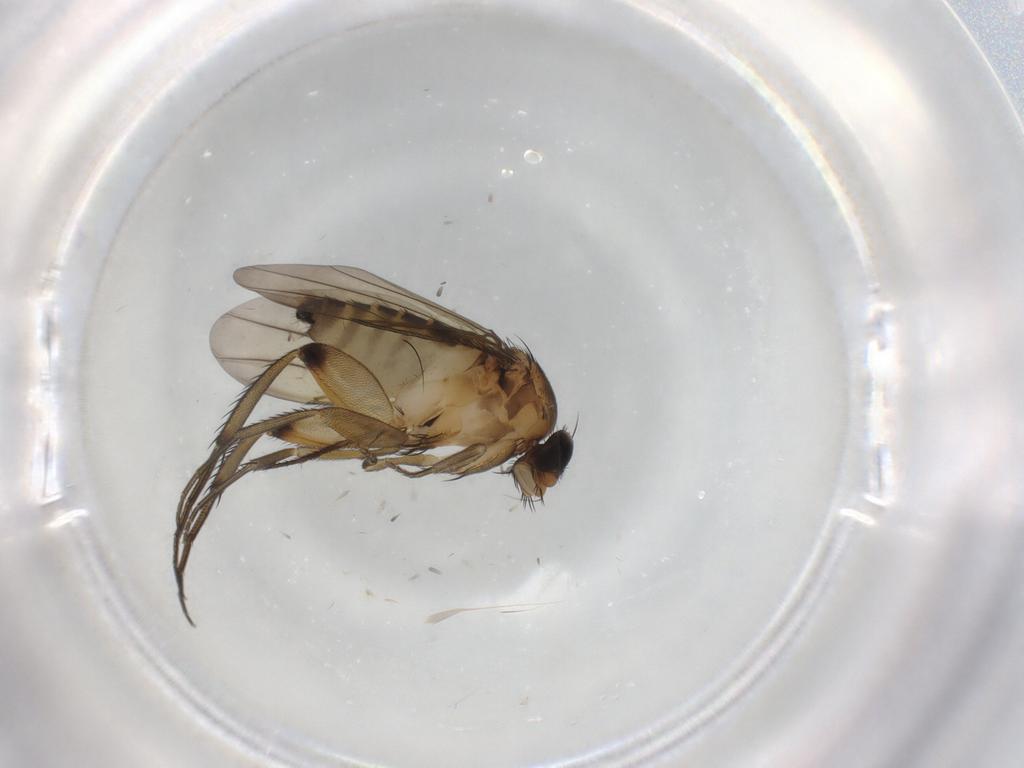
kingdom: Animalia
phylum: Arthropoda
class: Insecta
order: Diptera
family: Phoridae
